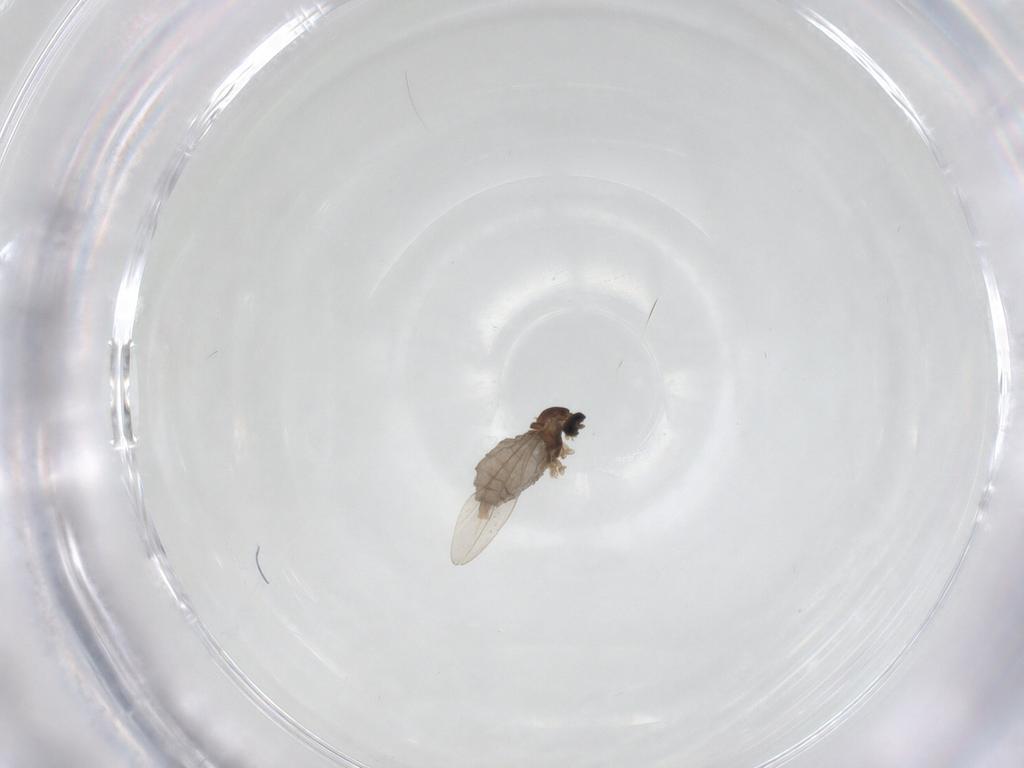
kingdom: Animalia
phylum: Arthropoda
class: Insecta
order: Diptera
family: Cecidomyiidae
